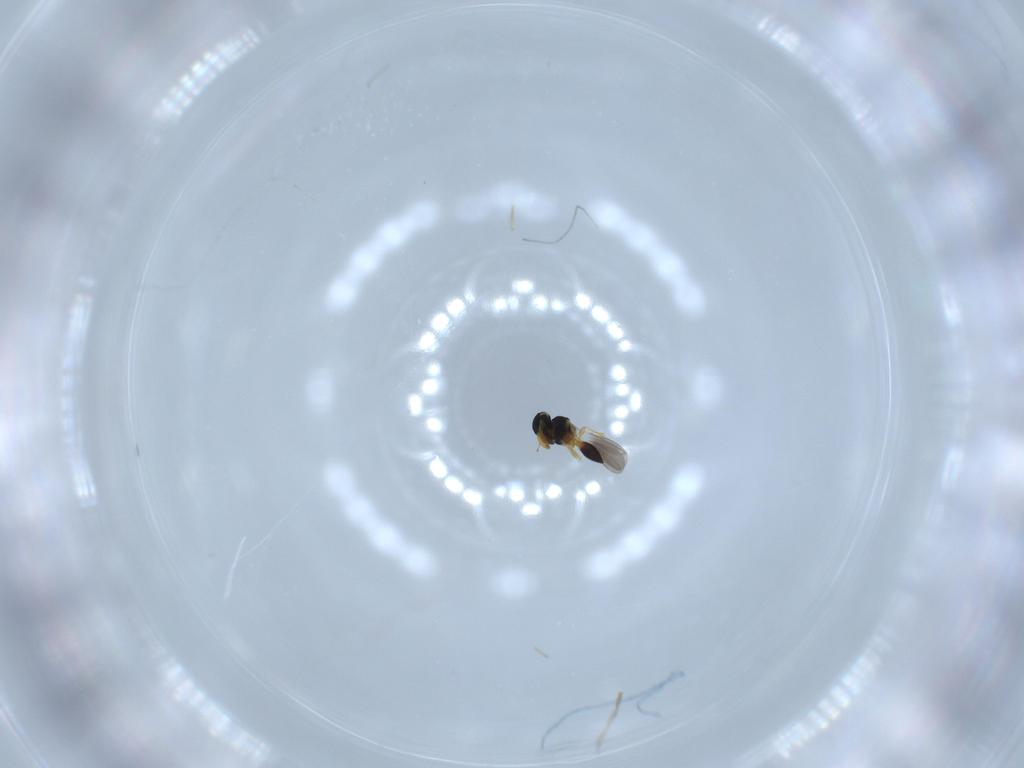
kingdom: Animalia
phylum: Arthropoda
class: Insecta
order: Hymenoptera
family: Platygastridae
